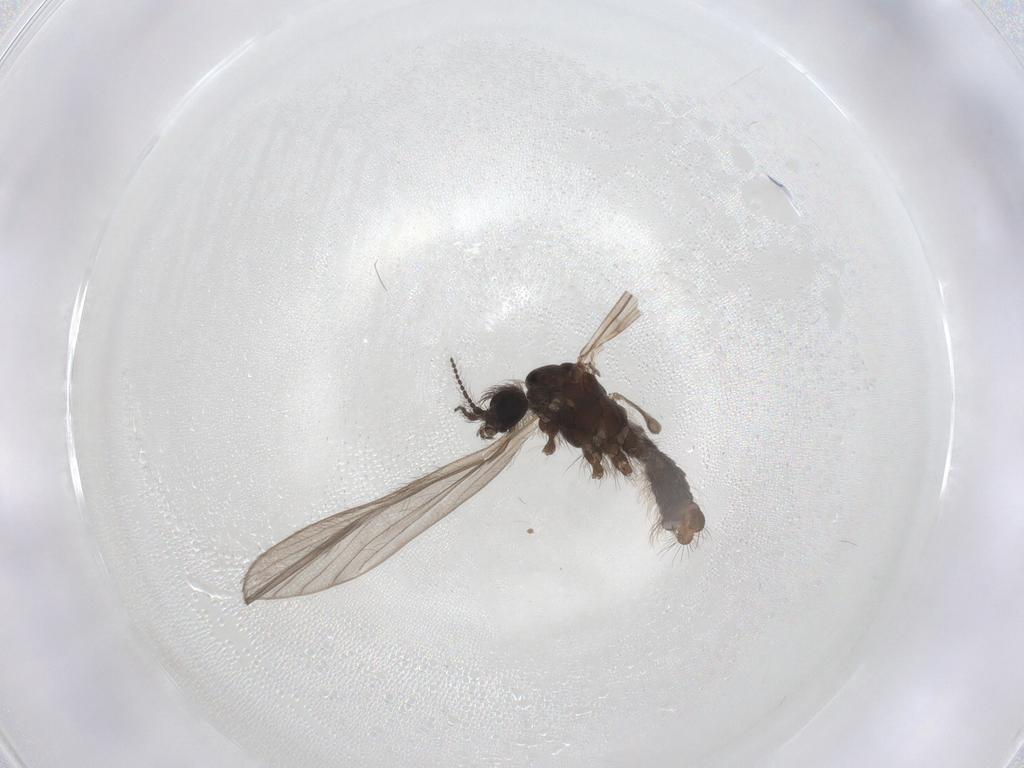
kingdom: Animalia
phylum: Arthropoda
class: Insecta
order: Diptera
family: Limoniidae
